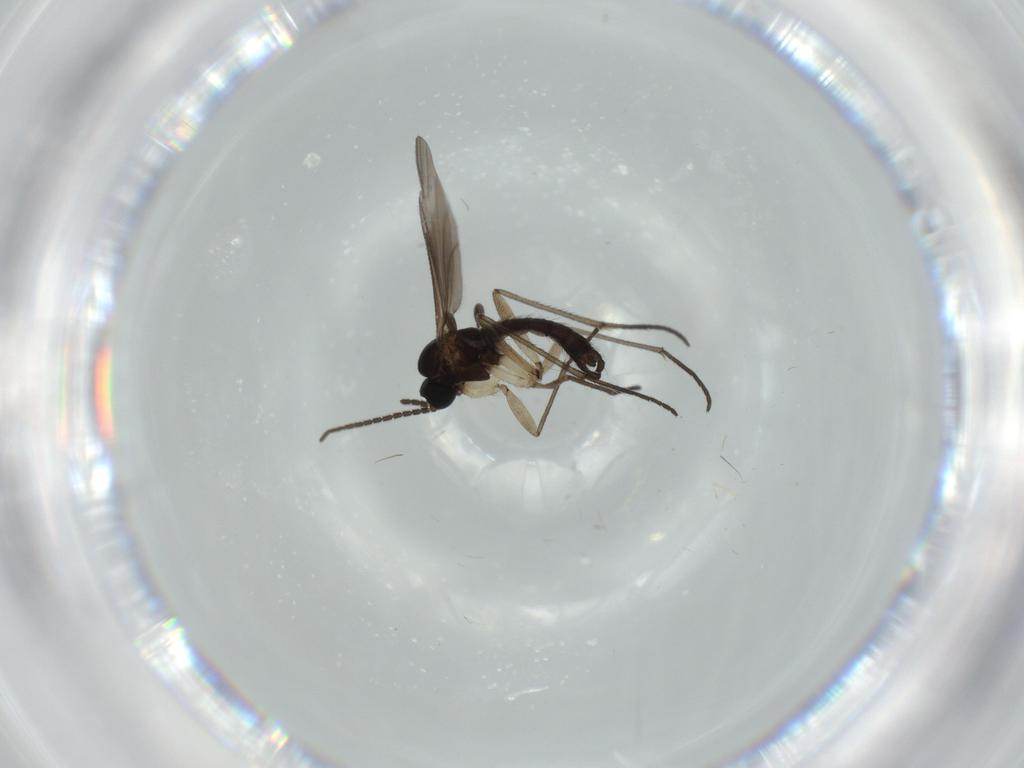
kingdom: Animalia
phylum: Arthropoda
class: Insecta
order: Diptera
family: Sciaridae
